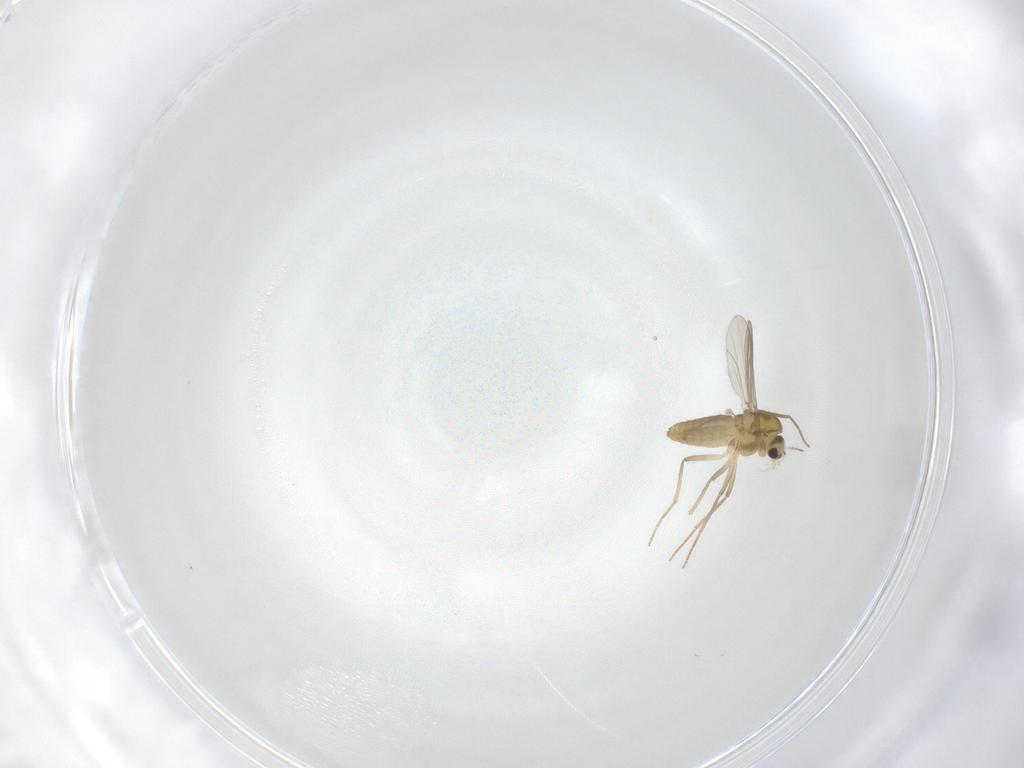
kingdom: Animalia
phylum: Arthropoda
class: Insecta
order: Diptera
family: Chironomidae
